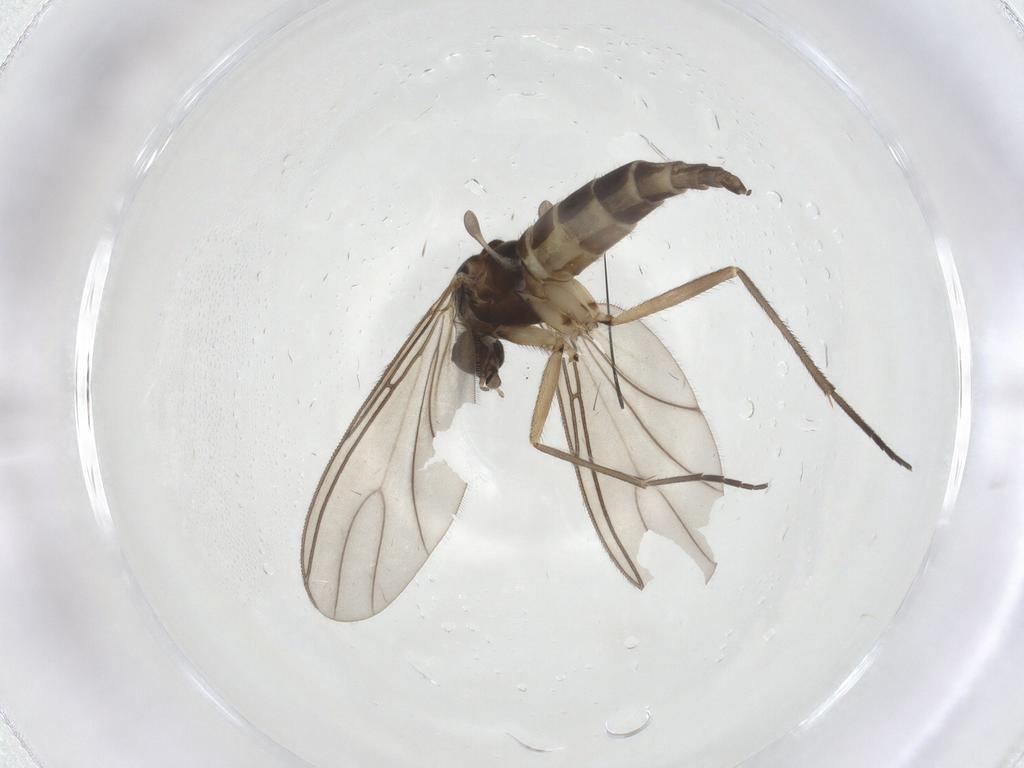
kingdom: Animalia
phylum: Arthropoda
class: Insecta
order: Diptera
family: Sciaridae
